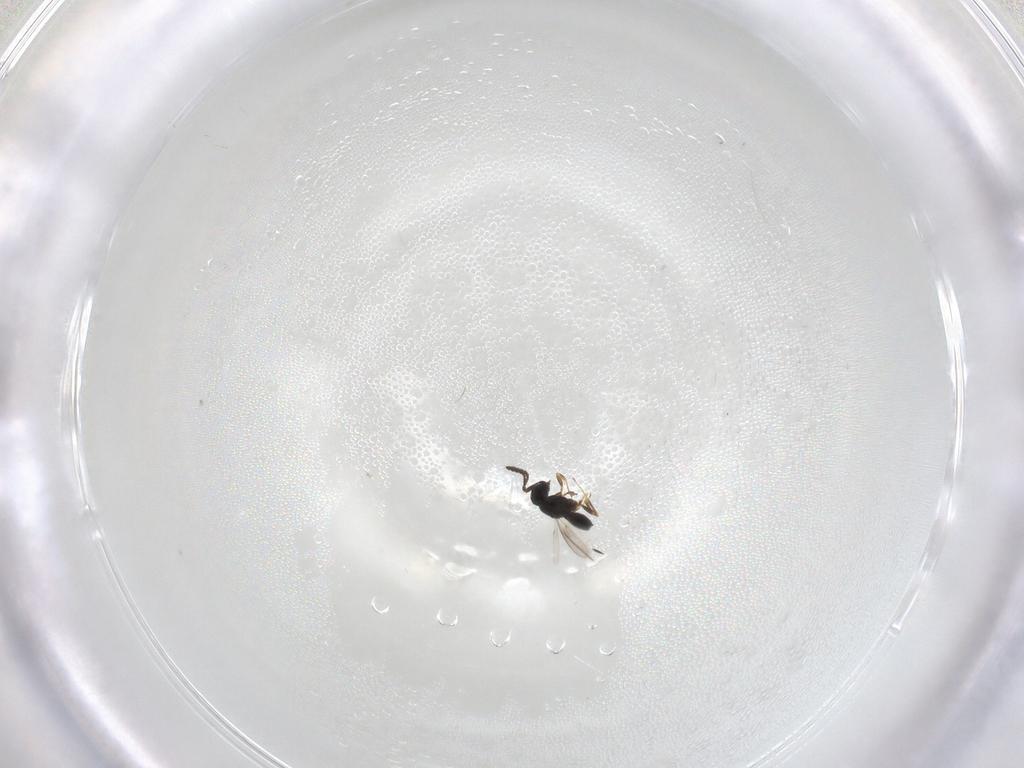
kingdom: Animalia
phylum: Arthropoda
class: Insecta
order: Hymenoptera
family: Scelionidae
